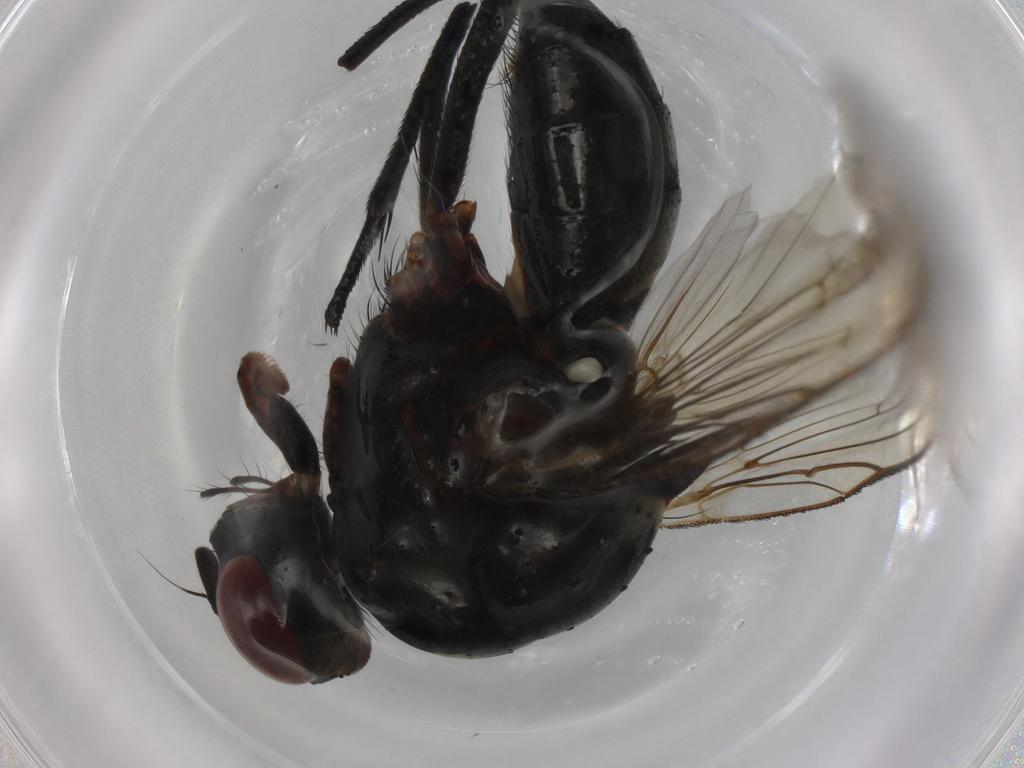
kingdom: Animalia
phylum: Arthropoda
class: Insecta
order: Diptera
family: Anthomyiidae
